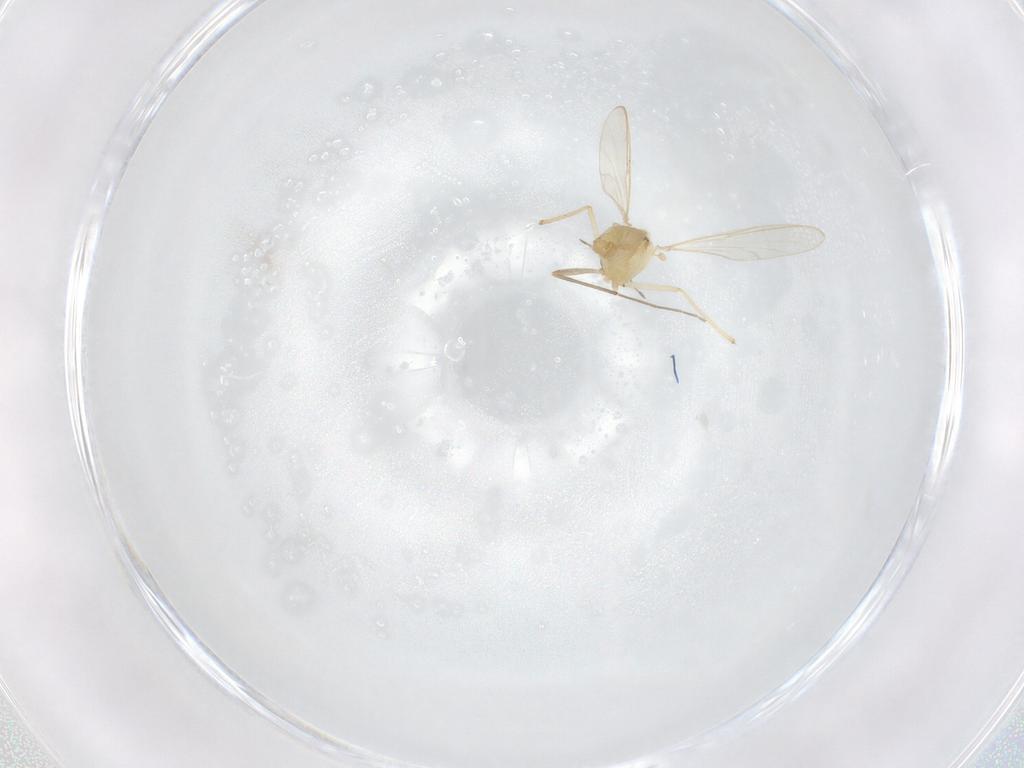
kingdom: Animalia
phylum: Arthropoda
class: Insecta
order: Diptera
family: Chironomidae
